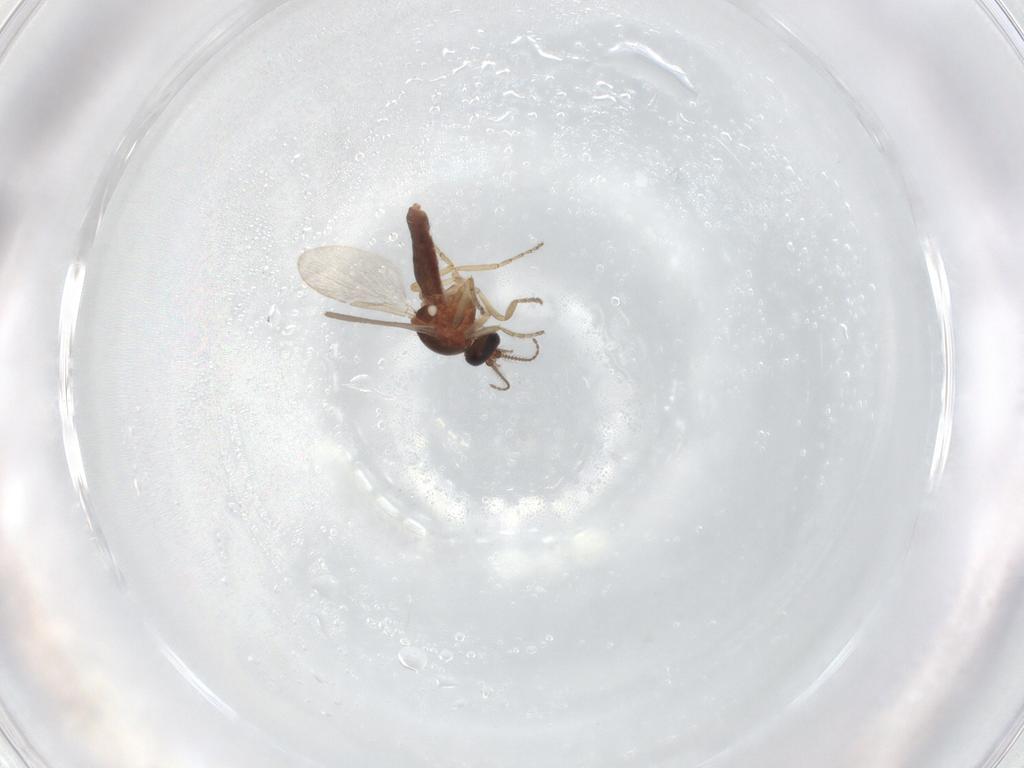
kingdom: Animalia
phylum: Arthropoda
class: Insecta
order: Diptera
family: Ceratopogonidae
